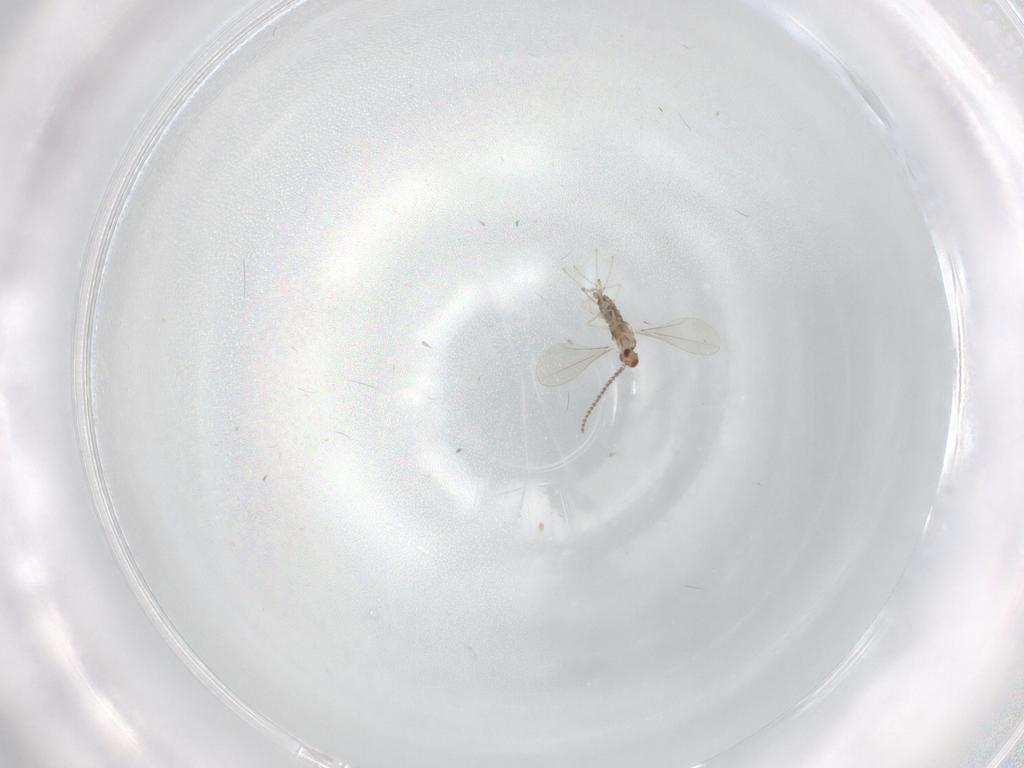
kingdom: Animalia
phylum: Arthropoda
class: Insecta
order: Diptera
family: Cecidomyiidae
